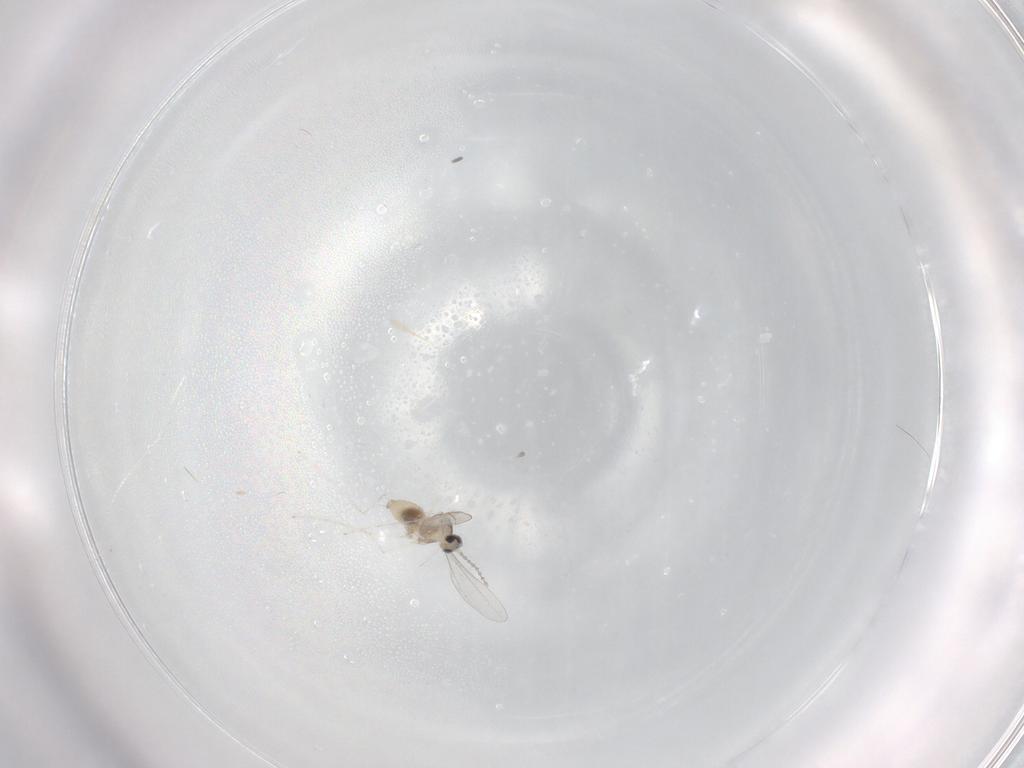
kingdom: Animalia
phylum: Arthropoda
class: Insecta
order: Diptera
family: Cecidomyiidae
